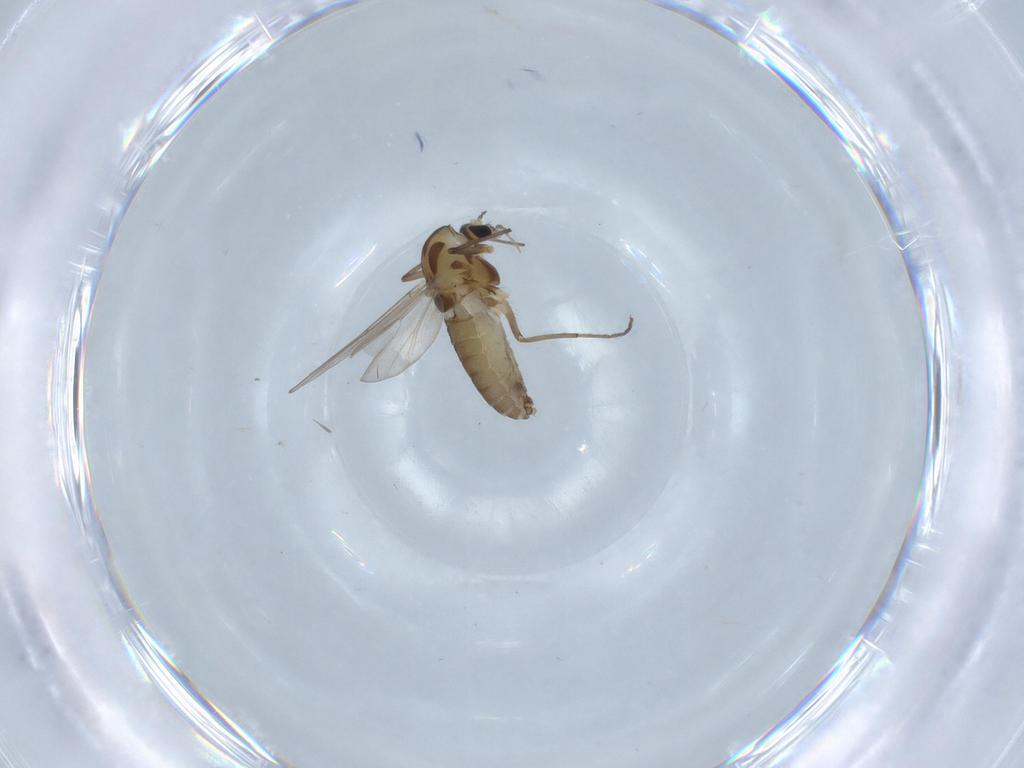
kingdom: Animalia
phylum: Arthropoda
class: Insecta
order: Diptera
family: Chironomidae
